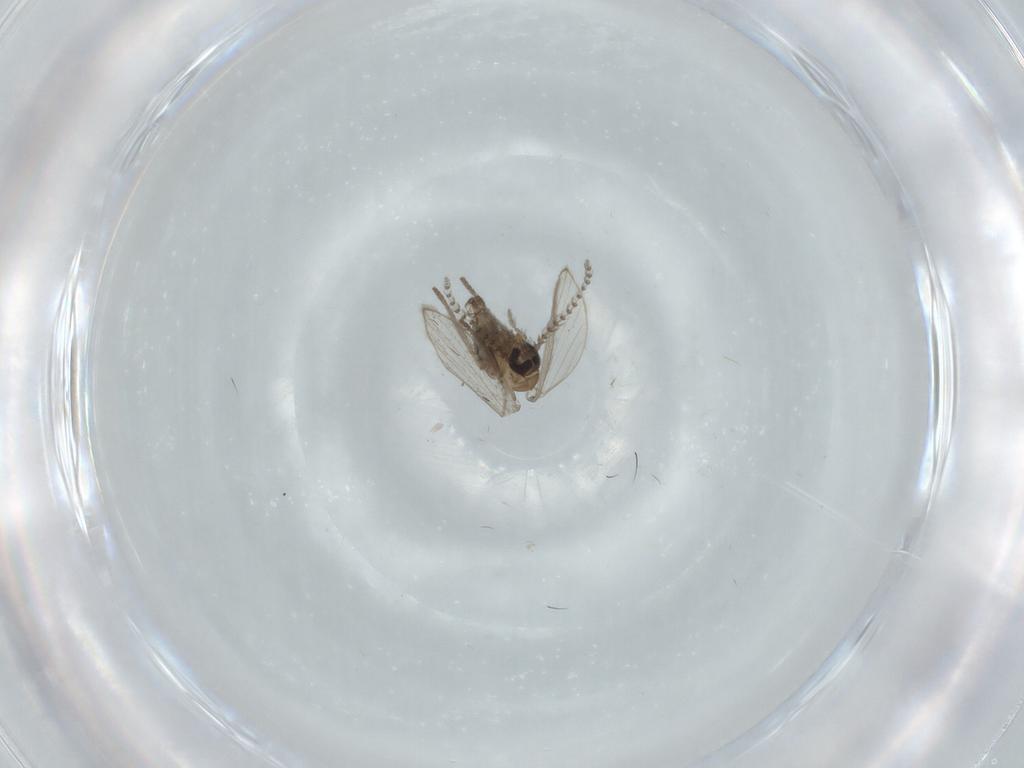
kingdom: Animalia
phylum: Arthropoda
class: Insecta
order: Diptera
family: Psychodidae
